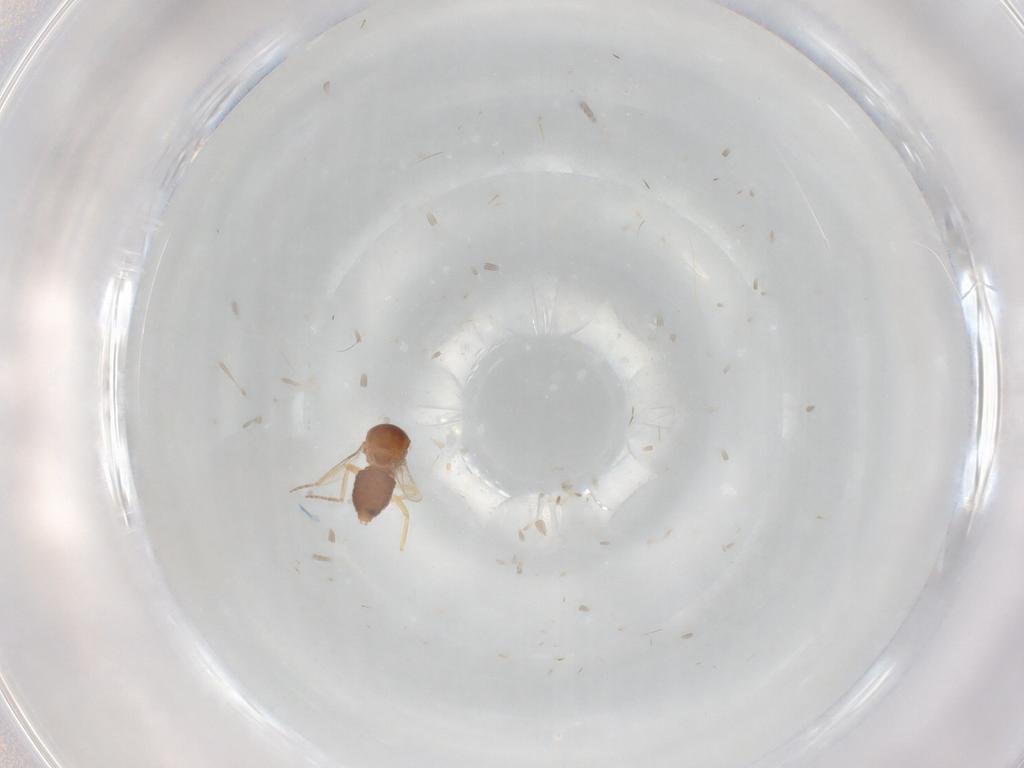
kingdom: Animalia
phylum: Arthropoda
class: Insecta
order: Diptera
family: Ceratopogonidae
